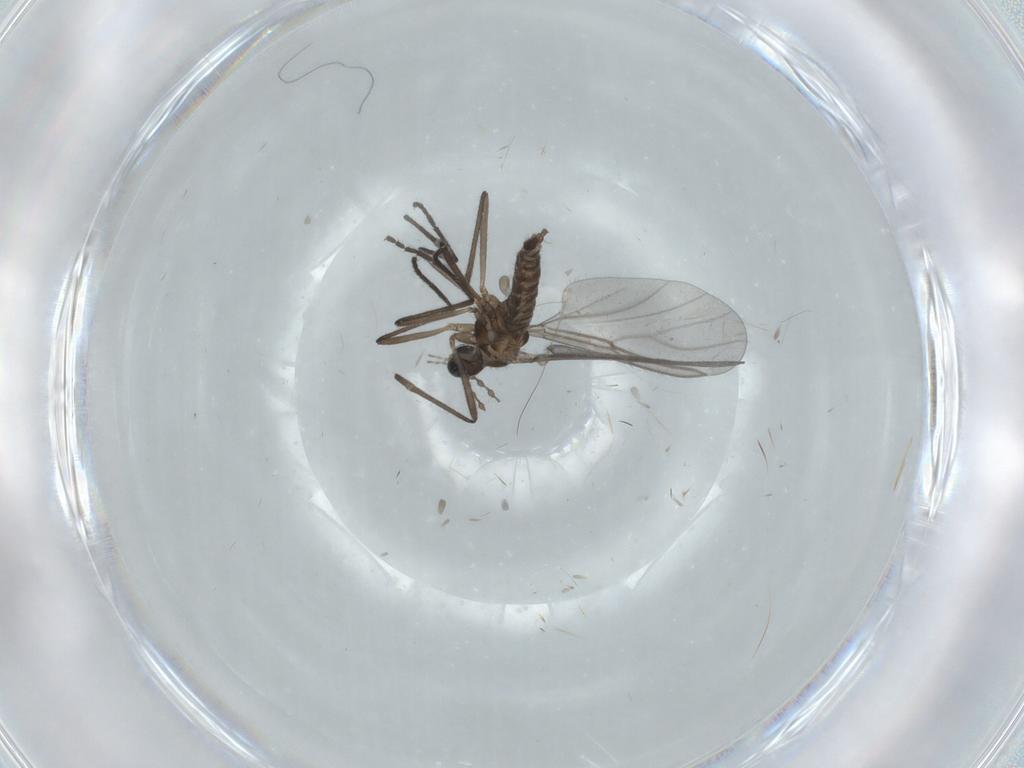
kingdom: Animalia
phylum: Arthropoda
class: Insecta
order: Diptera
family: Cecidomyiidae
